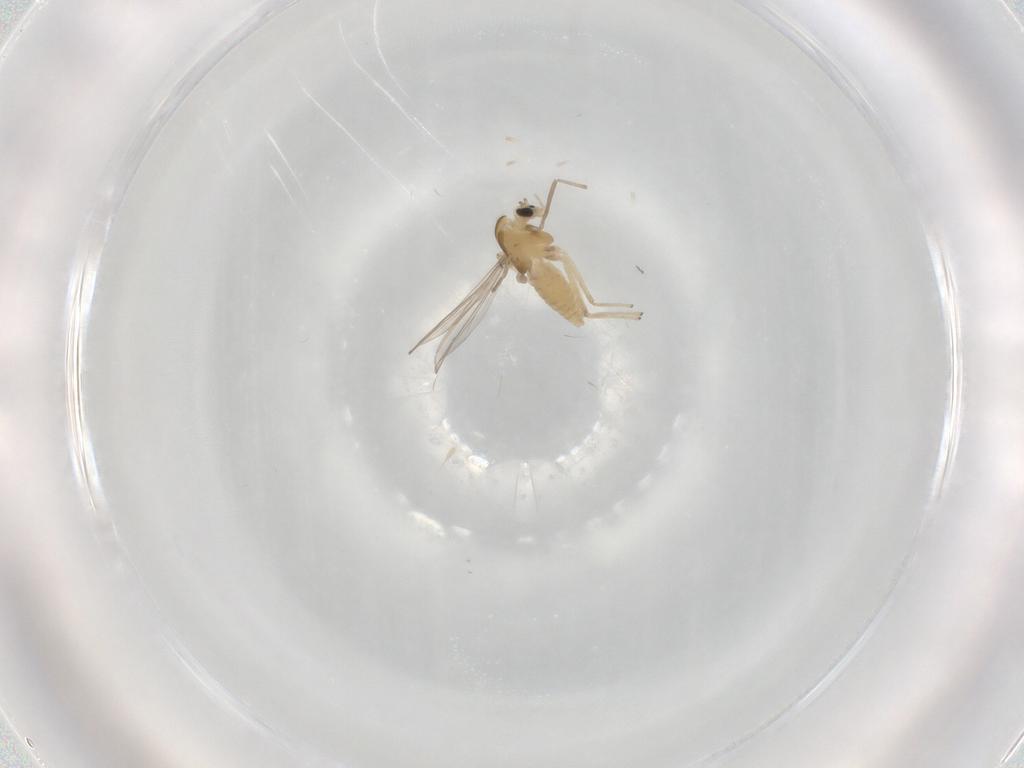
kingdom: Animalia
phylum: Arthropoda
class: Insecta
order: Diptera
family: Chironomidae
